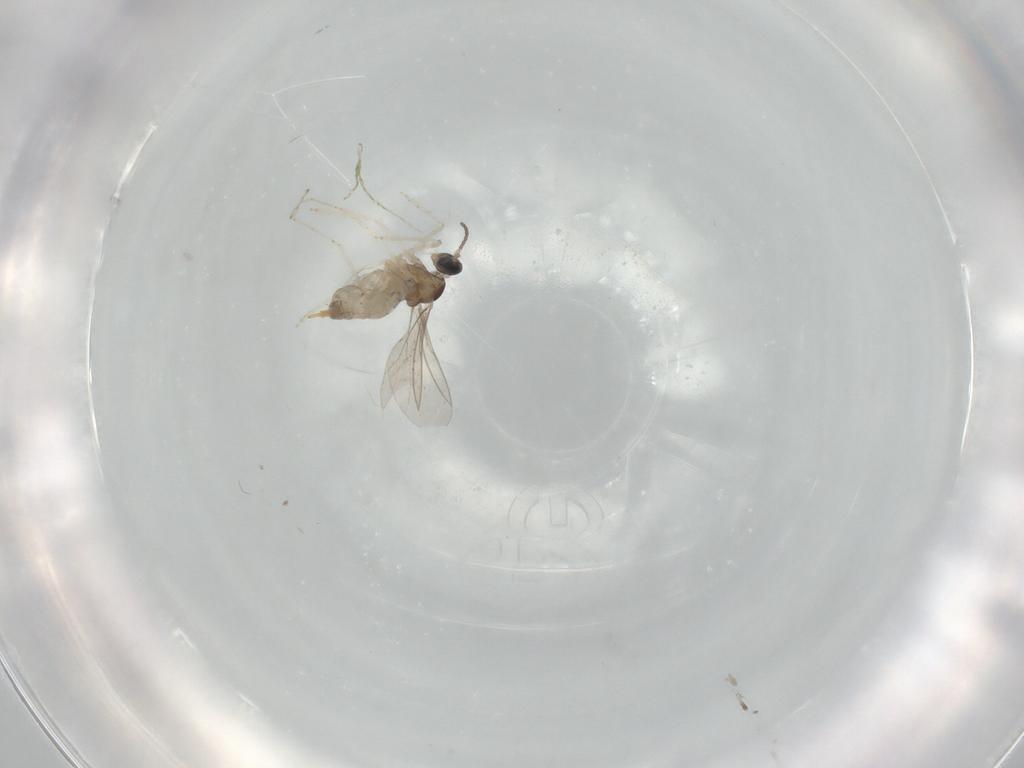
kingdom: Animalia
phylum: Arthropoda
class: Insecta
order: Diptera
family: Cecidomyiidae
